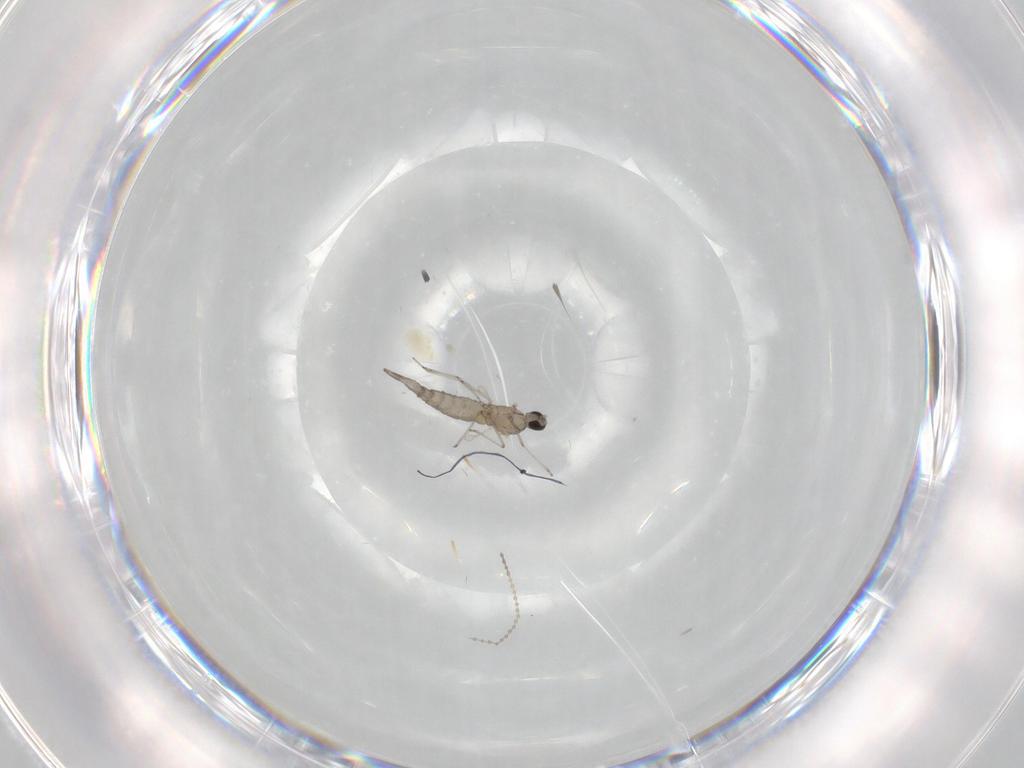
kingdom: Animalia
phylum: Arthropoda
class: Insecta
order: Diptera
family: Cecidomyiidae
